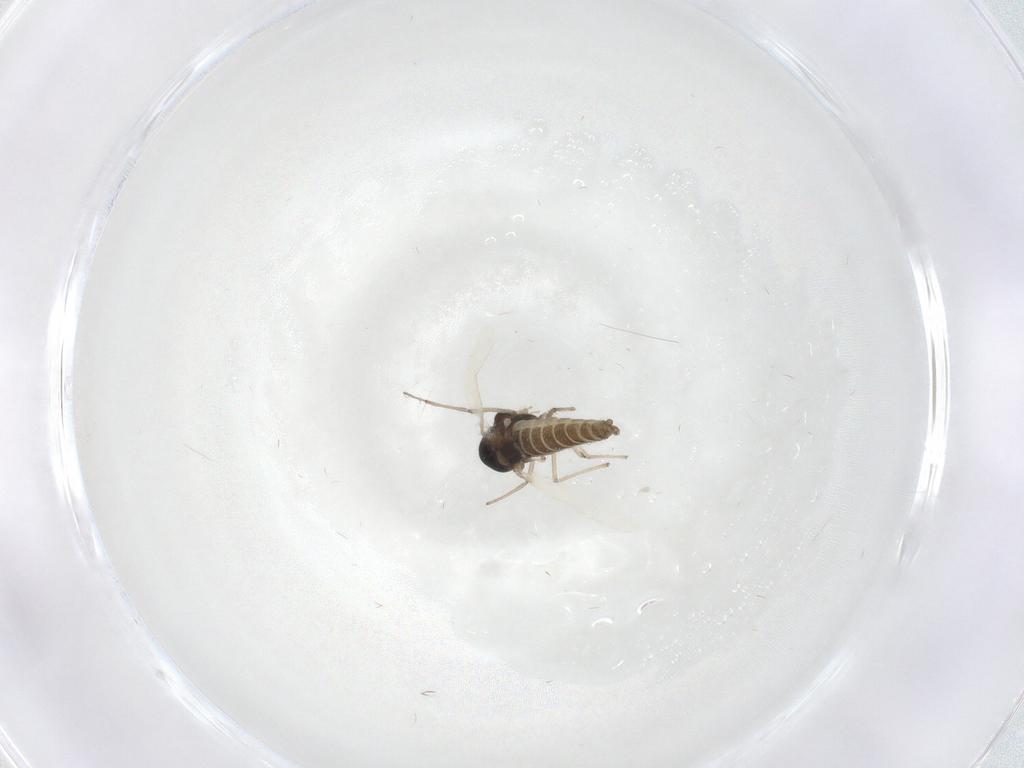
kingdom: Animalia
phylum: Arthropoda
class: Insecta
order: Diptera
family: Chironomidae
